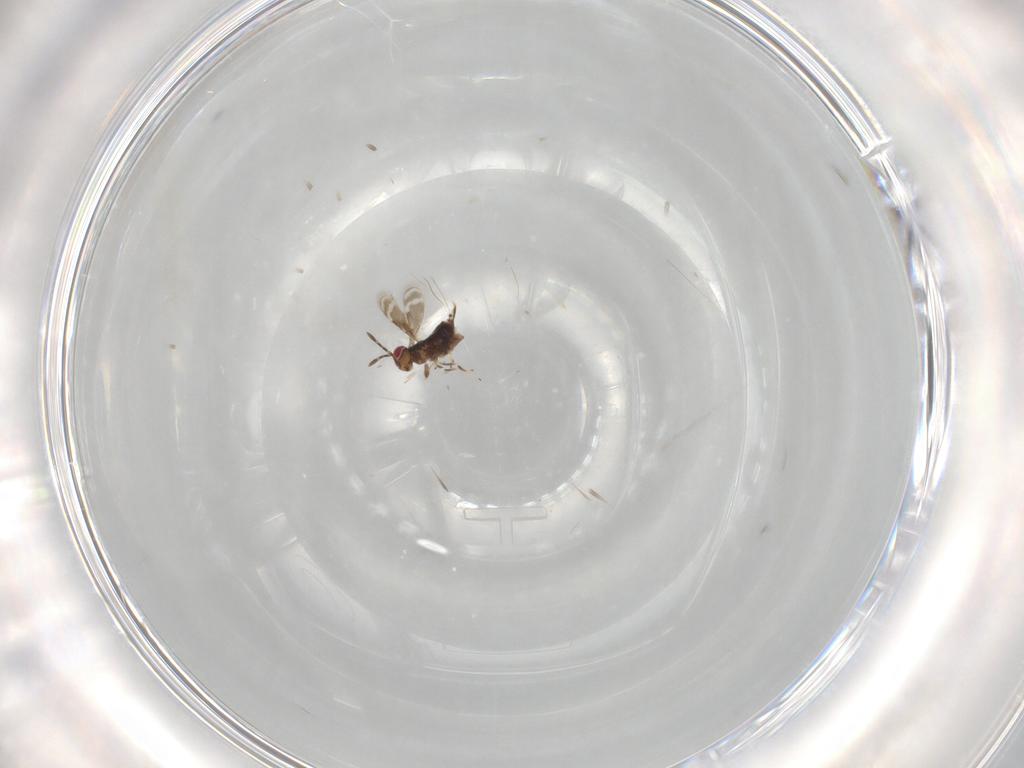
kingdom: Animalia
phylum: Arthropoda
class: Insecta
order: Hymenoptera
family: Azotidae
